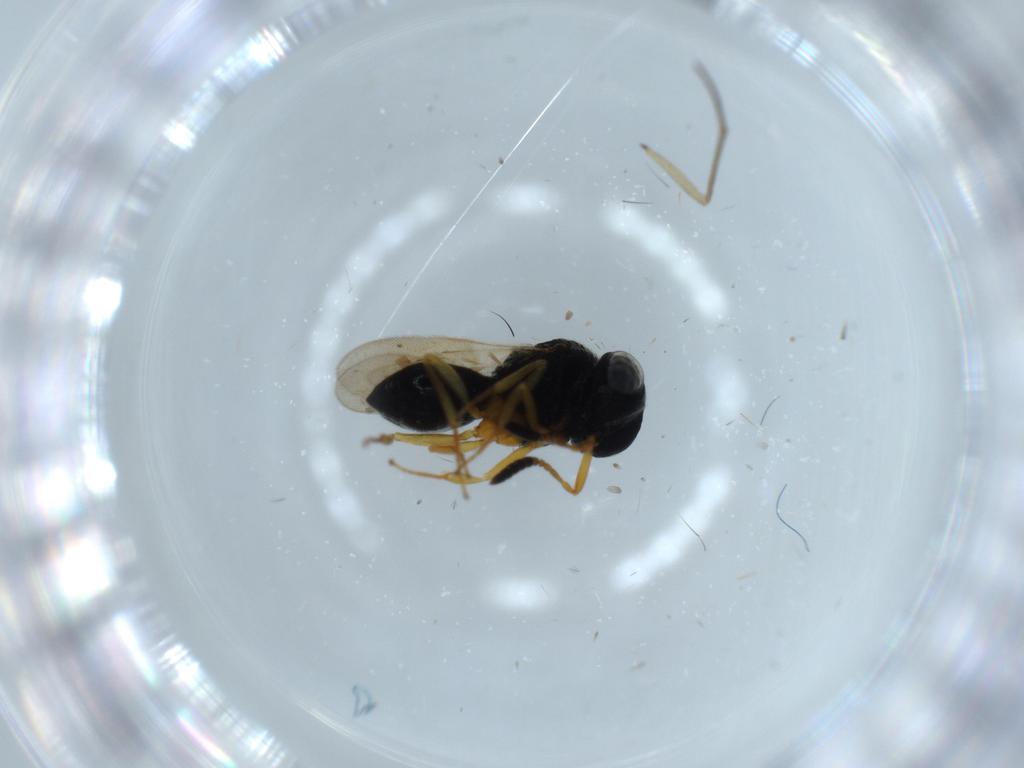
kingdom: Animalia
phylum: Arthropoda
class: Insecta
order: Hymenoptera
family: Scelionidae
